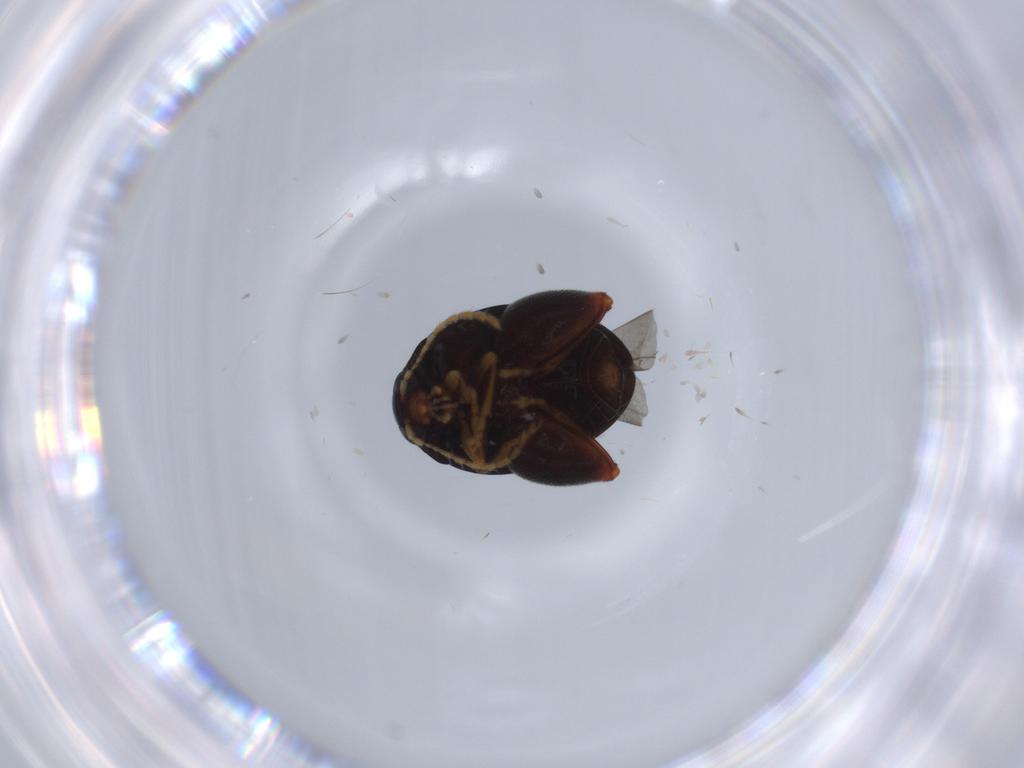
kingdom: Animalia
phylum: Arthropoda
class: Insecta
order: Coleoptera
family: Chrysomelidae
